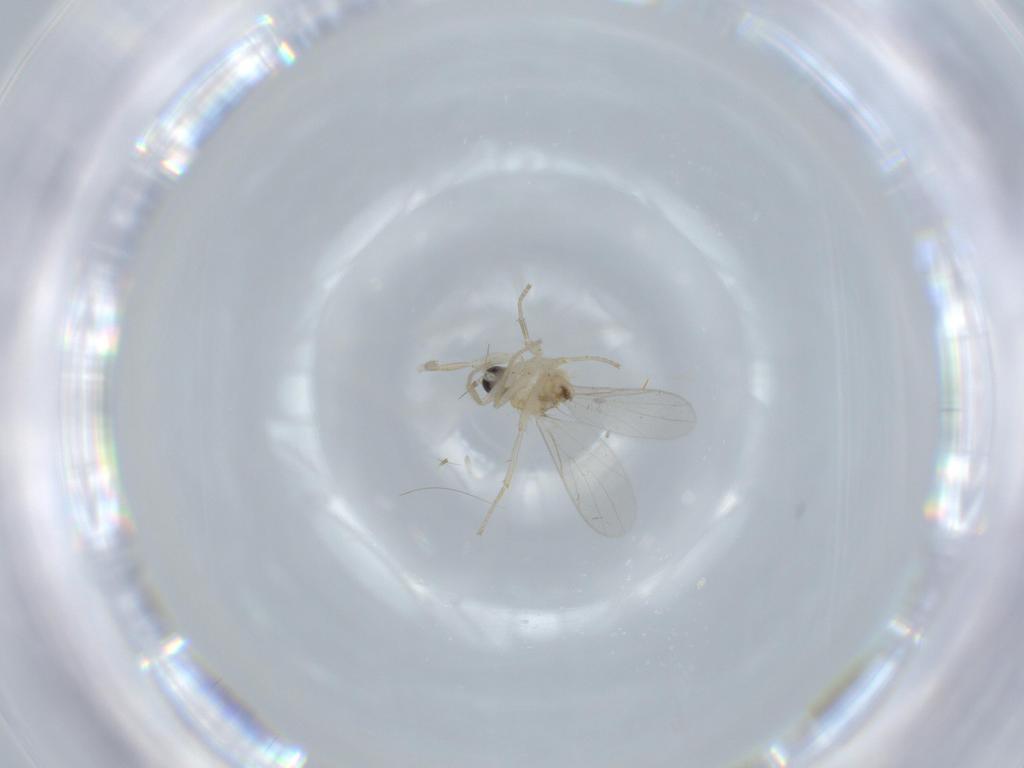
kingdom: Animalia
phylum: Arthropoda
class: Insecta
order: Diptera
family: Hybotidae
